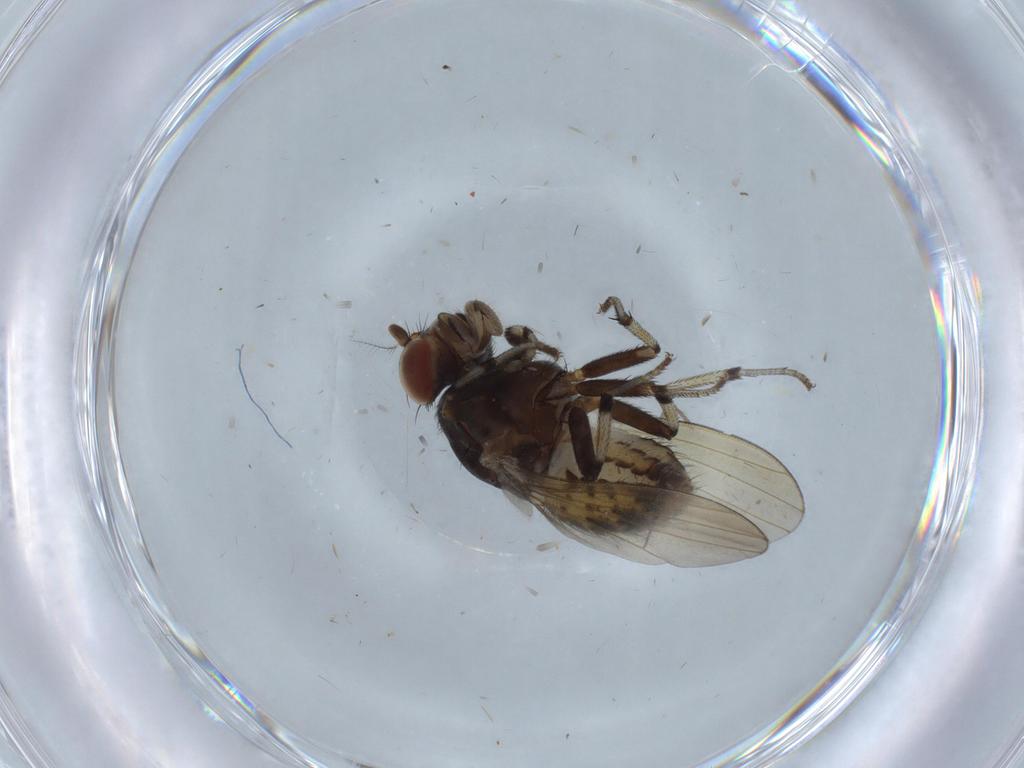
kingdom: Animalia
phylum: Arthropoda
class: Insecta
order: Diptera
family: Chironomidae
